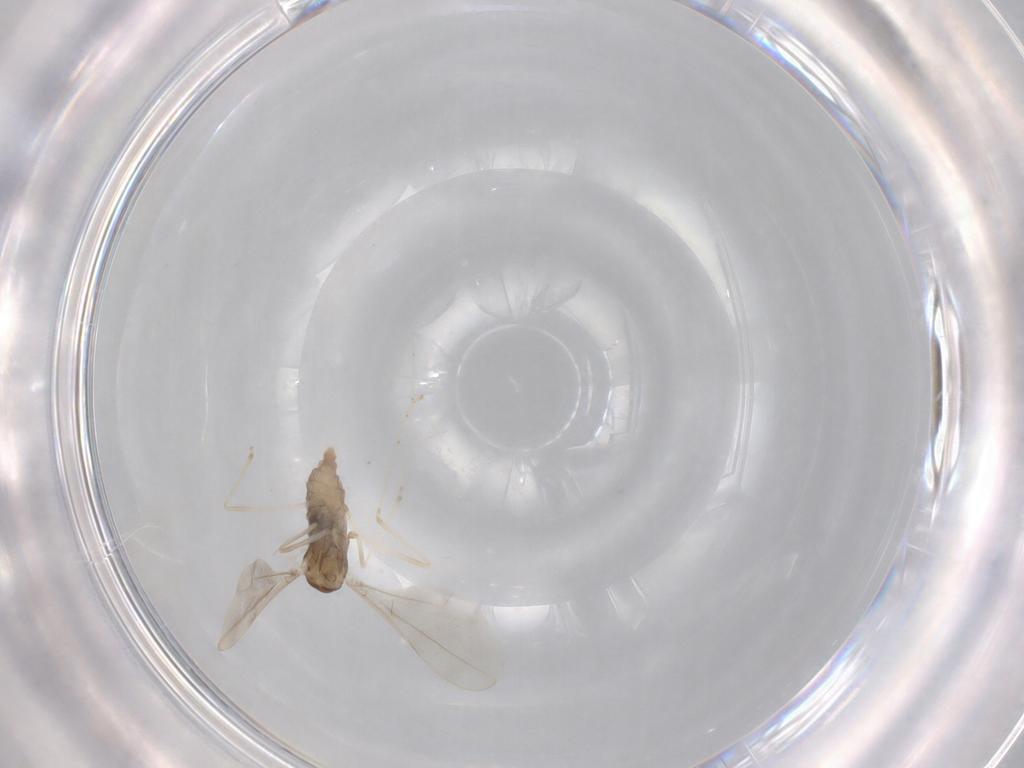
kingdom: Animalia
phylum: Arthropoda
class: Insecta
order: Diptera
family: Cecidomyiidae
